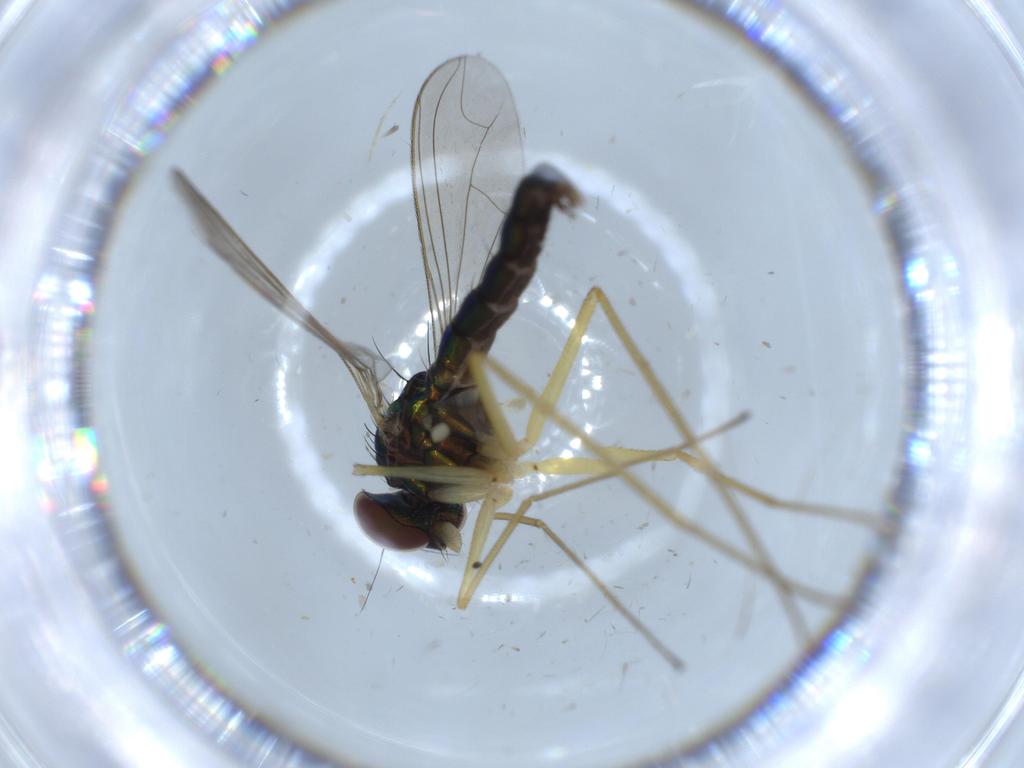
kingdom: Animalia
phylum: Arthropoda
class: Insecta
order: Diptera
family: Dolichopodidae
